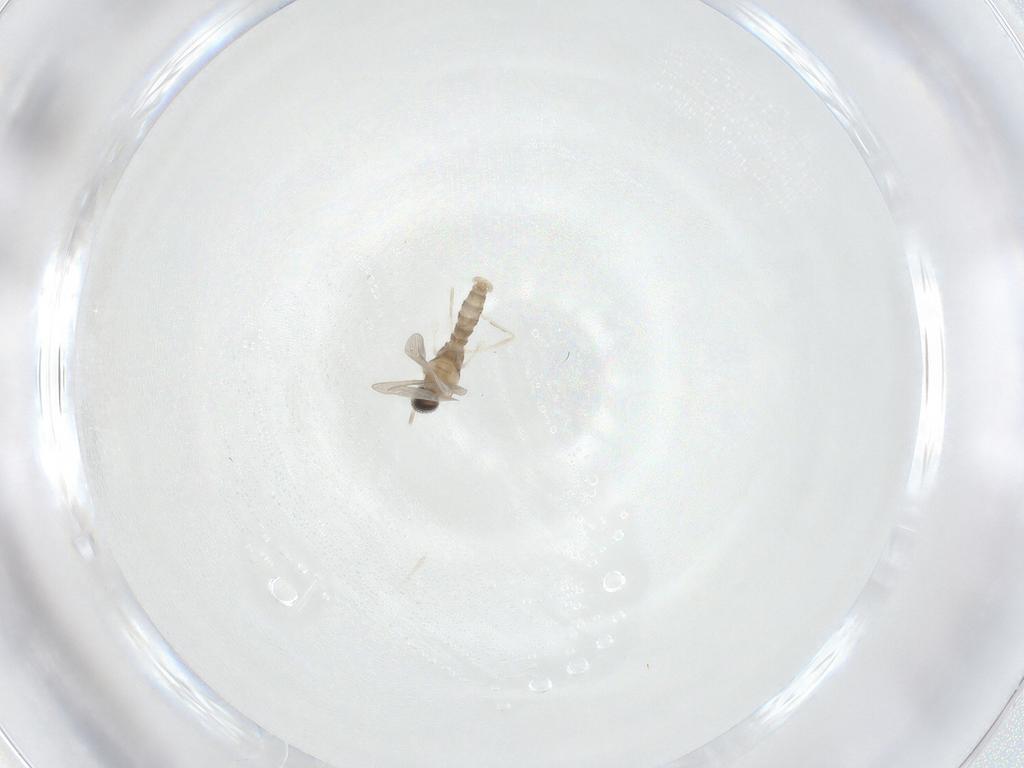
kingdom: Animalia
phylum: Arthropoda
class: Insecta
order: Diptera
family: Cecidomyiidae
